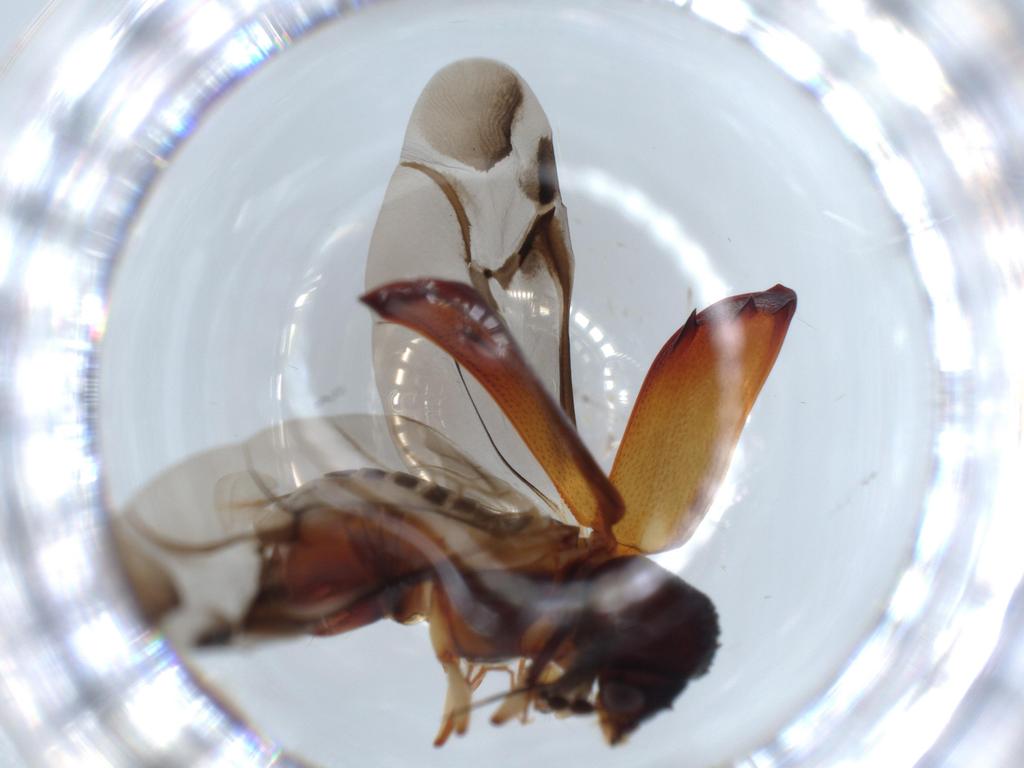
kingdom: Animalia
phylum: Arthropoda
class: Insecta
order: Coleoptera
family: Bostrichidae
